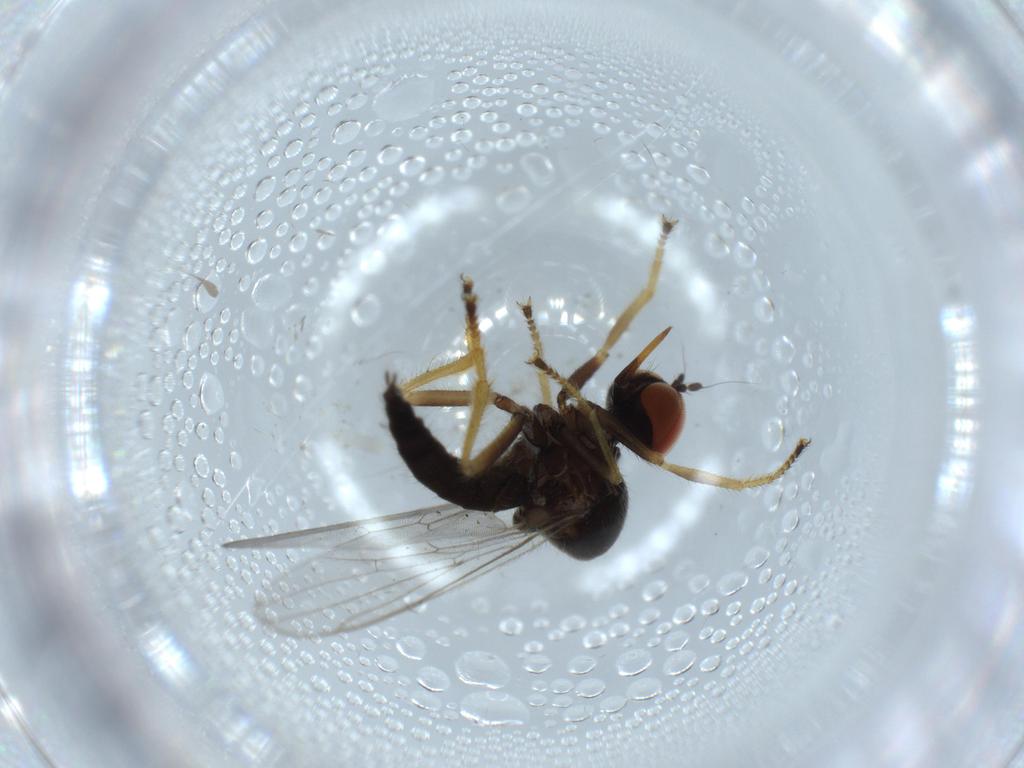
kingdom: Animalia
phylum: Arthropoda
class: Insecta
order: Diptera
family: Cecidomyiidae
